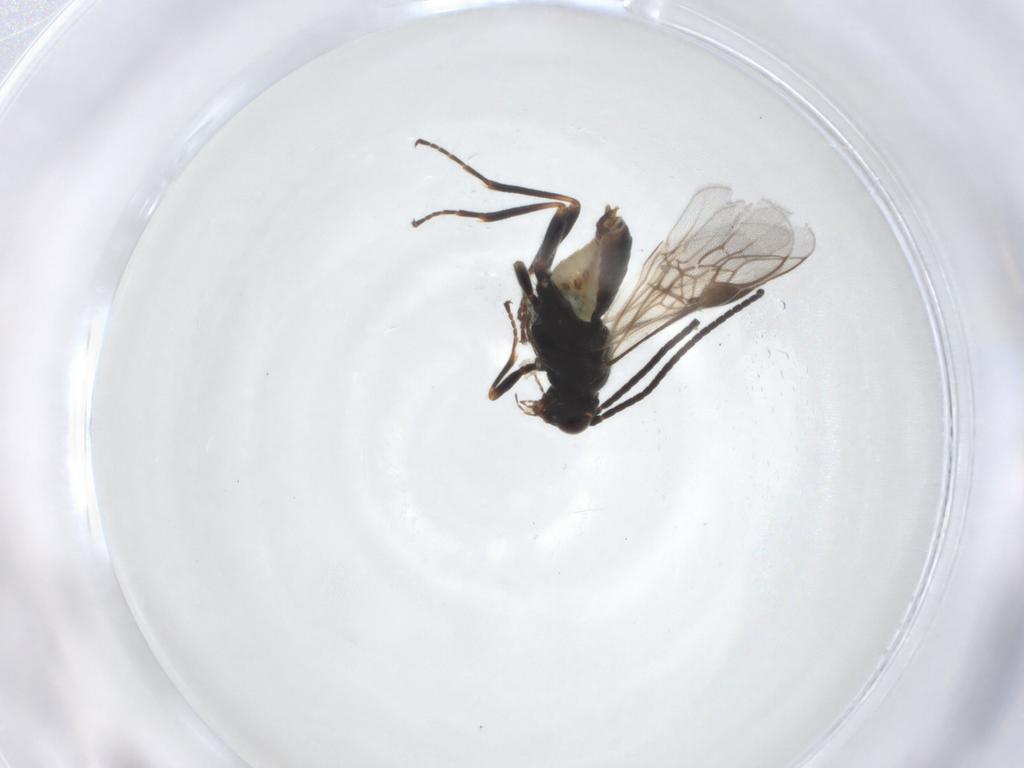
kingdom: Animalia
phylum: Arthropoda
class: Insecta
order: Hymenoptera
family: Braconidae
